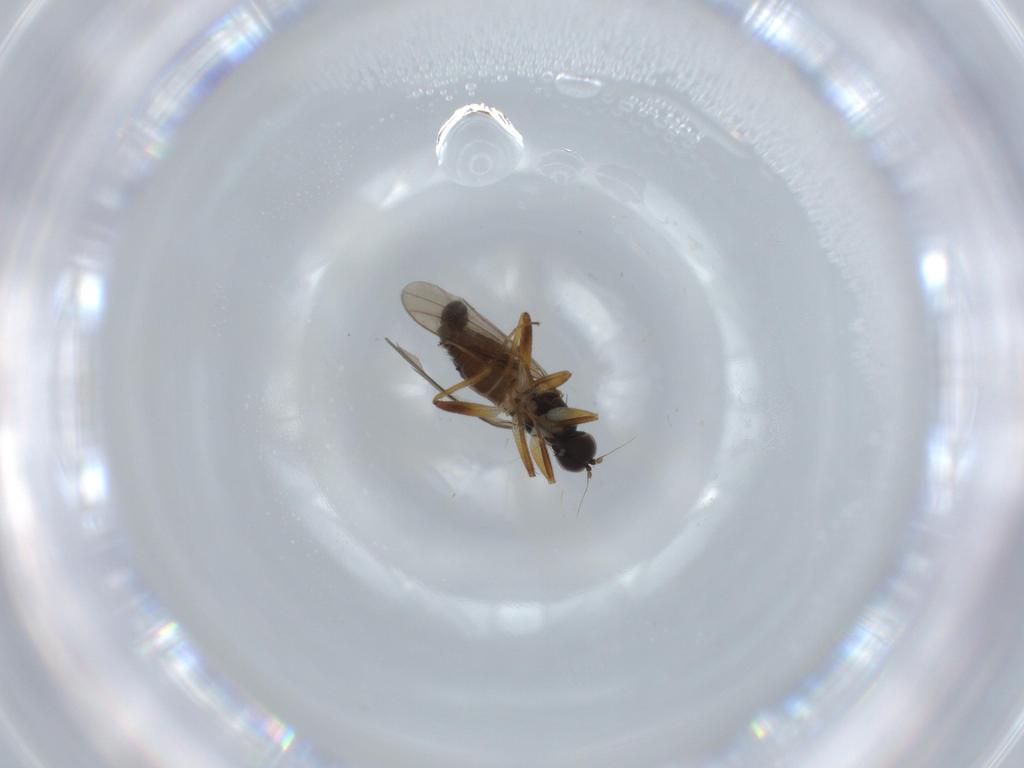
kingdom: Animalia
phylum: Arthropoda
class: Insecta
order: Diptera
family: Hybotidae
